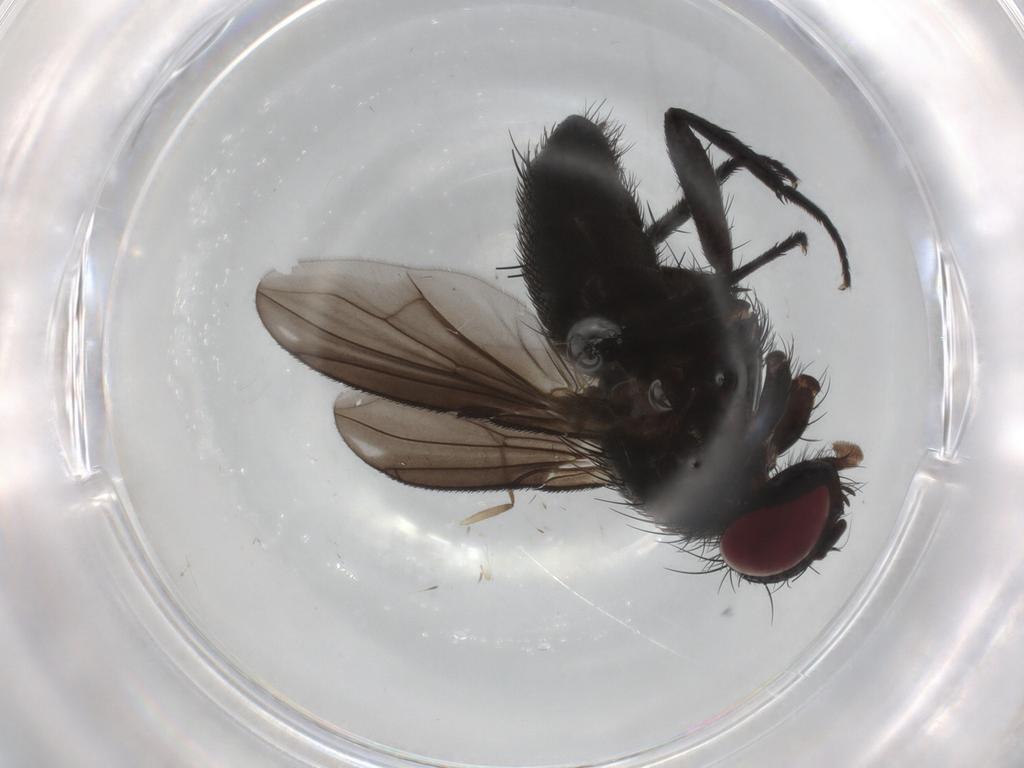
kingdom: Animalia
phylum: Arthropoda
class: Insecta
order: Diptera
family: Calliphoridae
